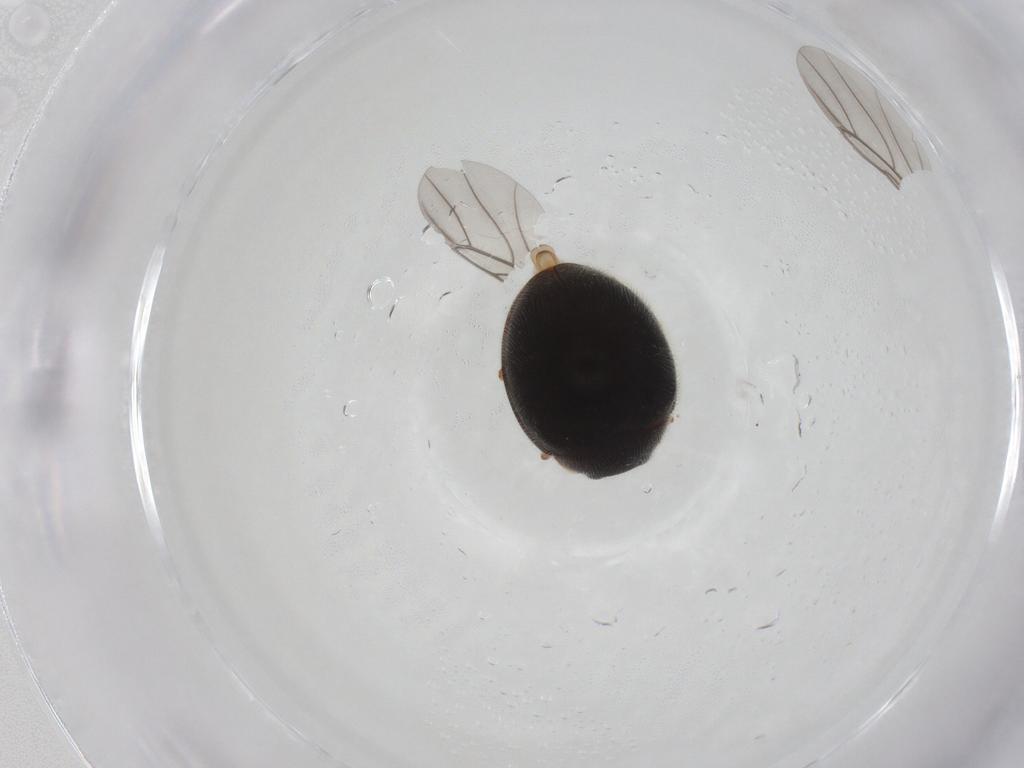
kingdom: Animalia
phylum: Arthropoda
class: Insecta
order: Coleoptera
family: Coccinellidae
